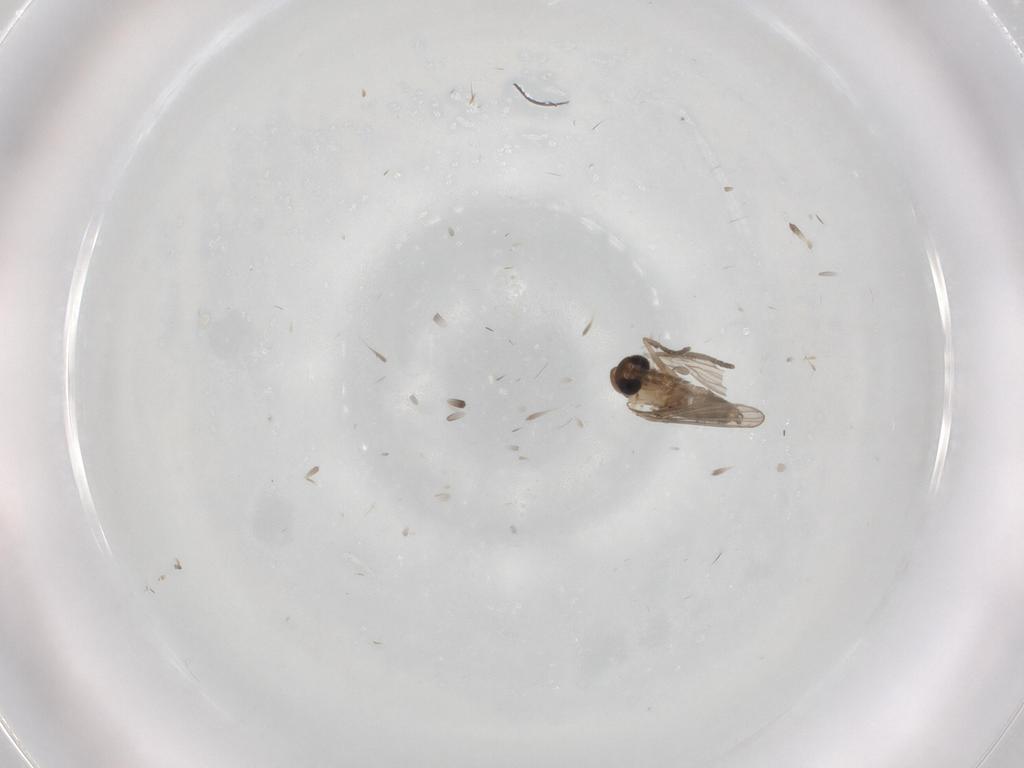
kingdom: Animalia
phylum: Arthropoda
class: Insecta
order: Diptera
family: Psychodidae
